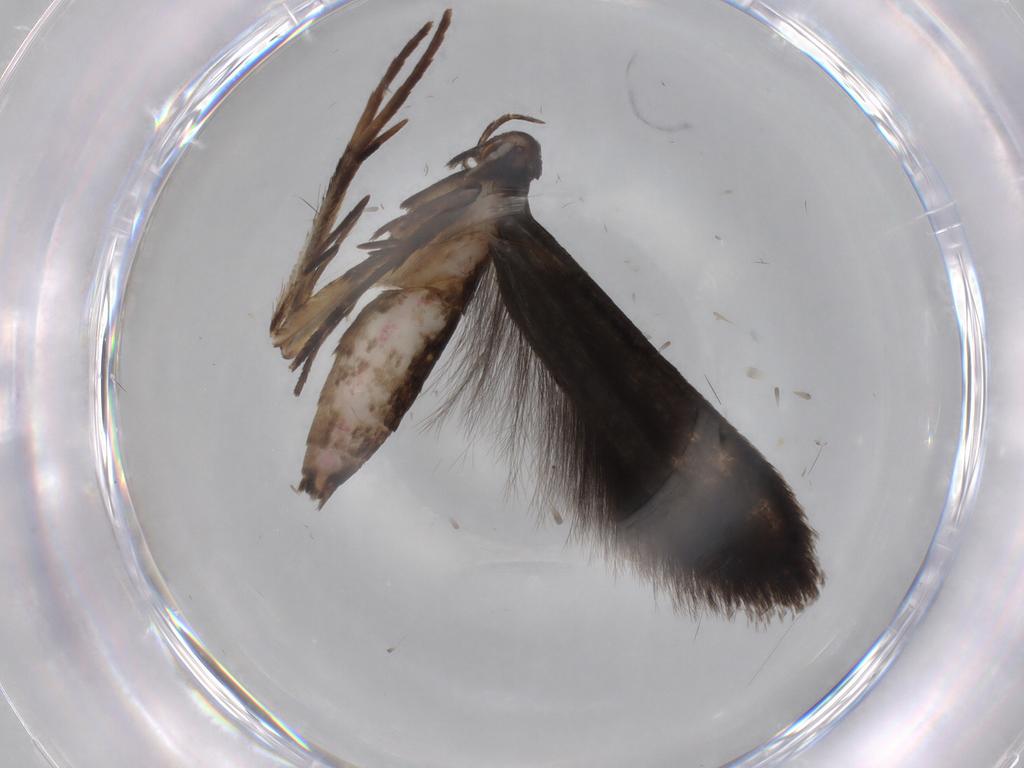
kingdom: Animalia
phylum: Arthropoda
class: Insecta
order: Lepidoptera
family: Gelechiidae
